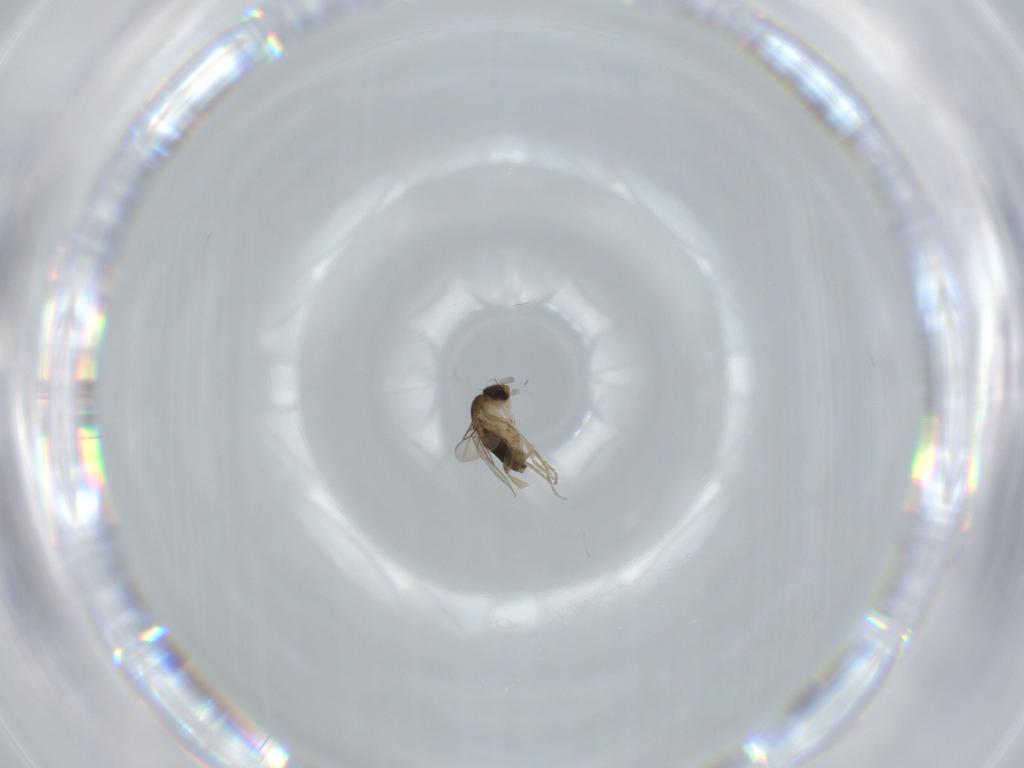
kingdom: Animalia
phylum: Arthropoda
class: Insecta
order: Diptera
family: Phoridae
